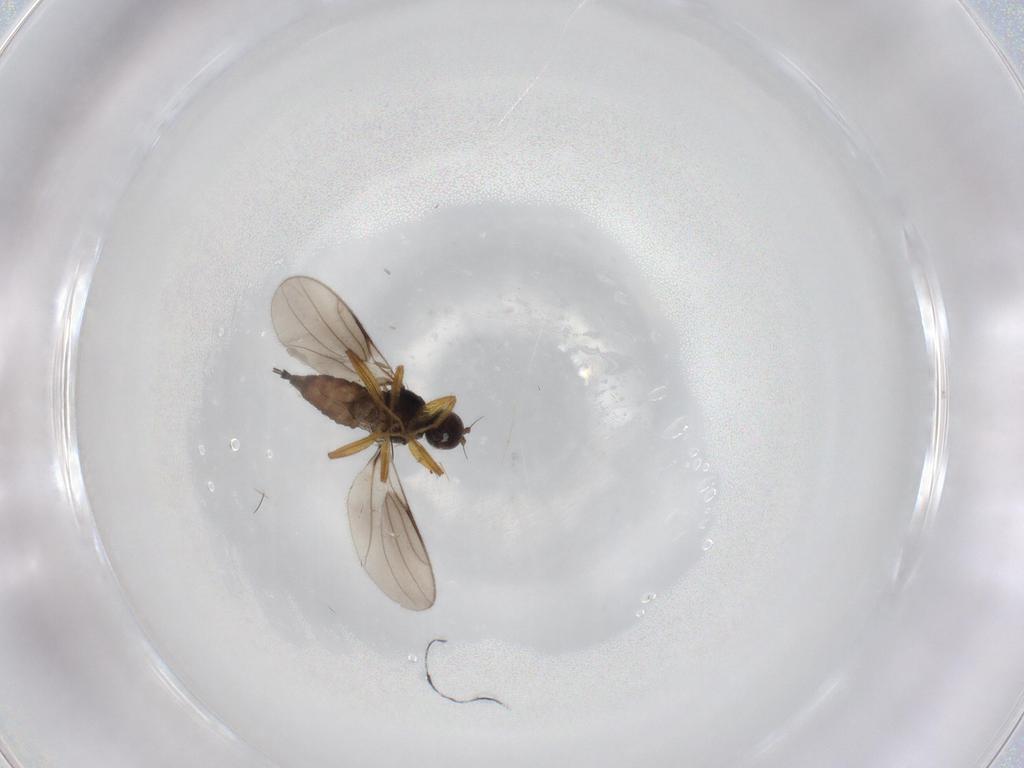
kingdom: Animalia
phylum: Arthropoda
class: Insecta
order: Diptera
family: Hybotidae
